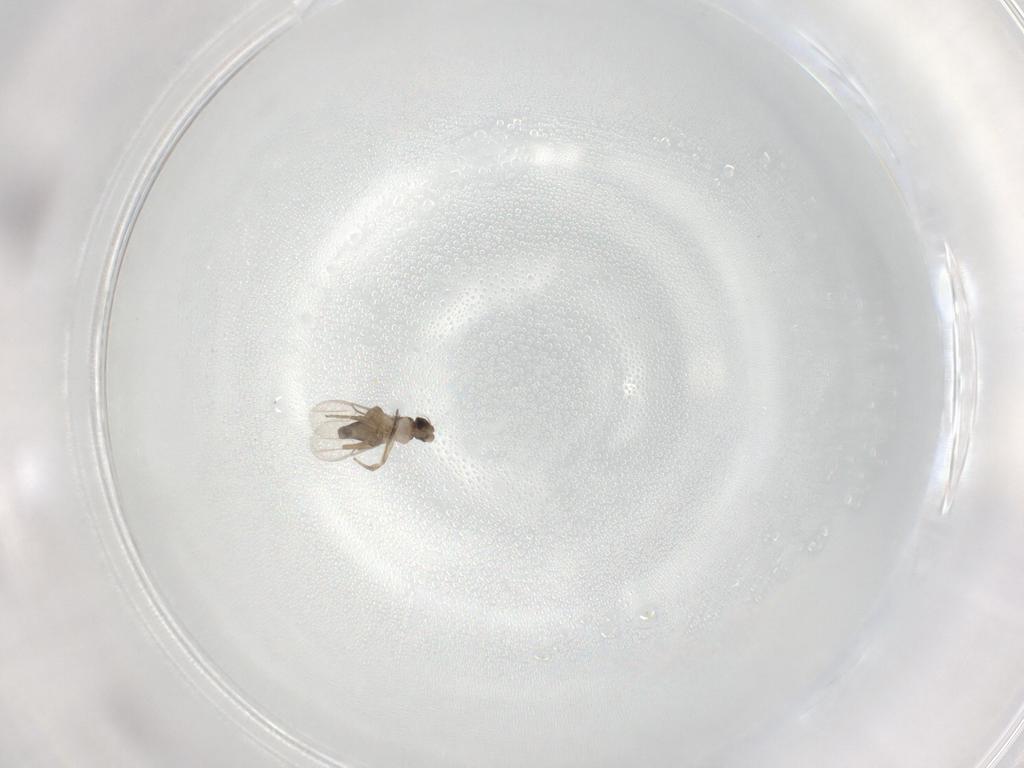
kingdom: Animalia
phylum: Arthropoda
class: Insecta
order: Diptera
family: Phoridae
